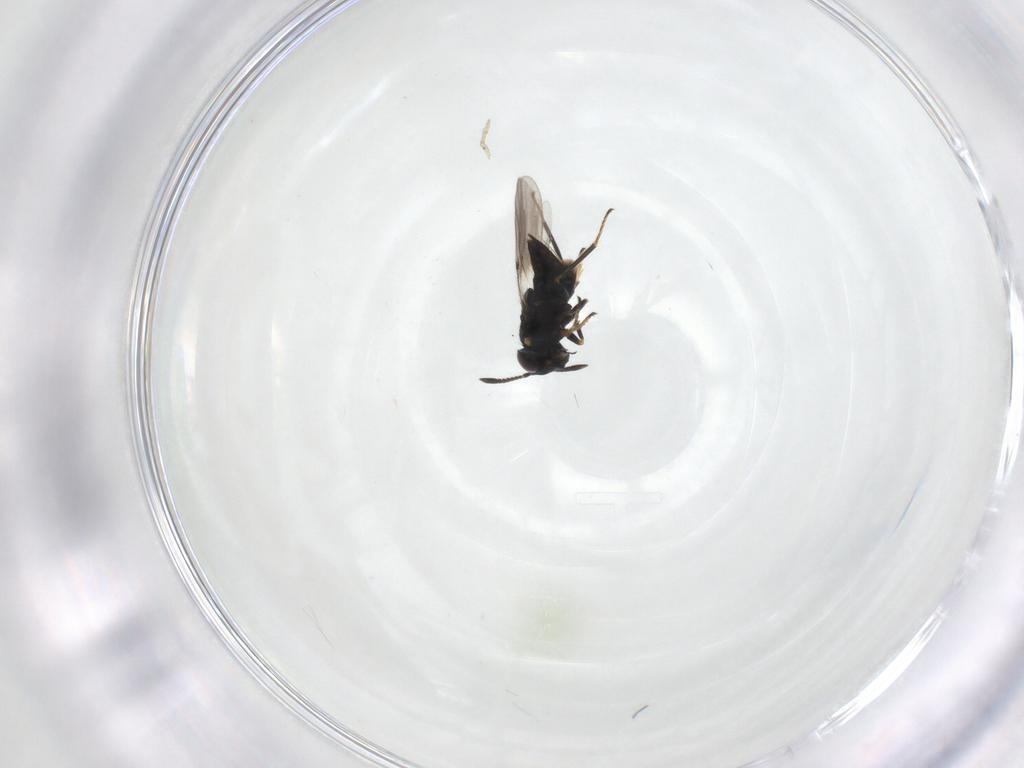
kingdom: Animalia
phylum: Arthropoda
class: Insecta
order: Hymenoptera
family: Encyrtidae
